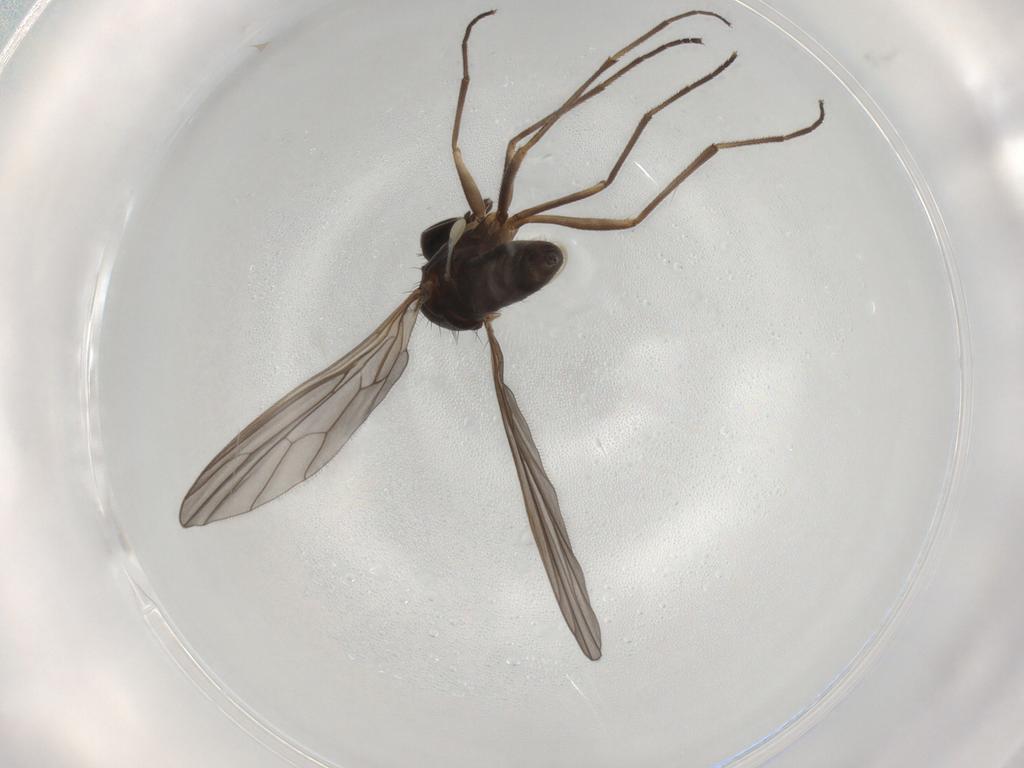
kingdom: Animalia
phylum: Arthropoda
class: Insecta
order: Diptera
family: Empididae
